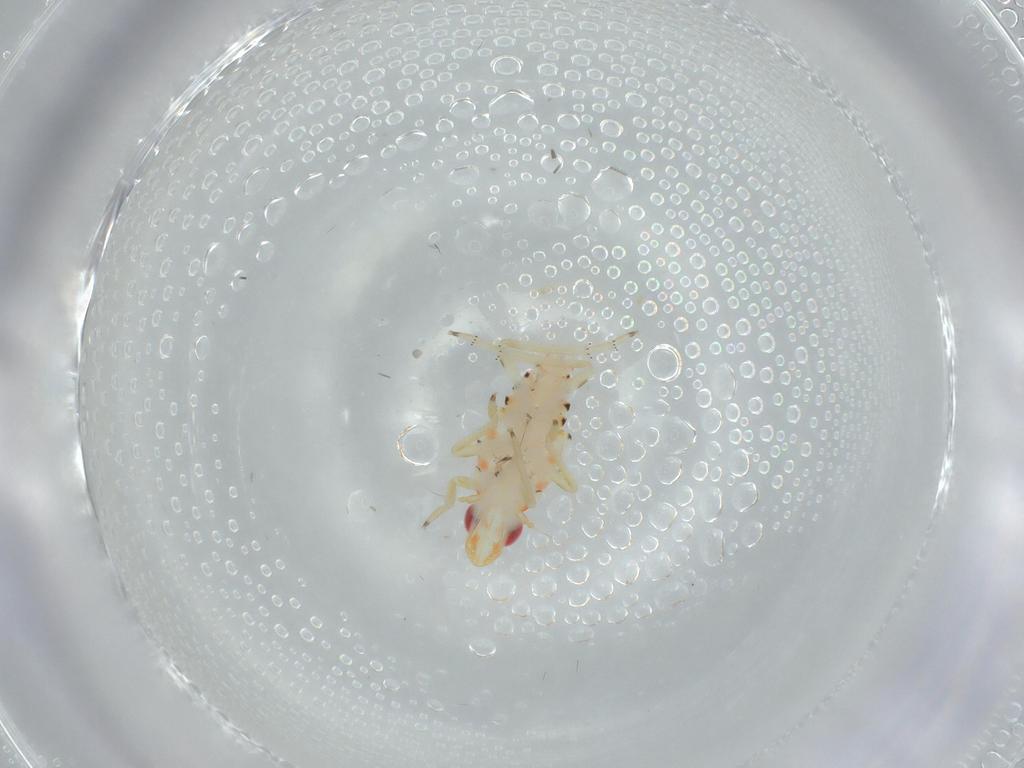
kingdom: Animalia
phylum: Arthropoda
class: Insecta
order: Hemiptera
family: Tropiduchidae
